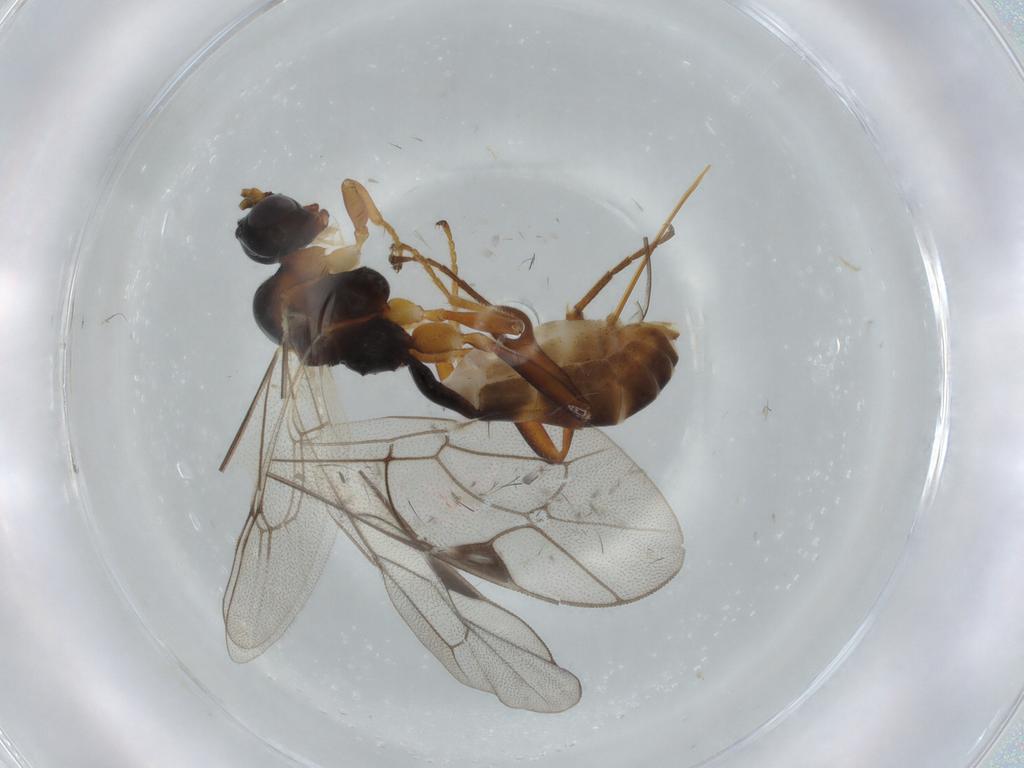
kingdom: Animalia
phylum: Arthropoda
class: Insecta
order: Hymenoptera
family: Ichneumonidae
